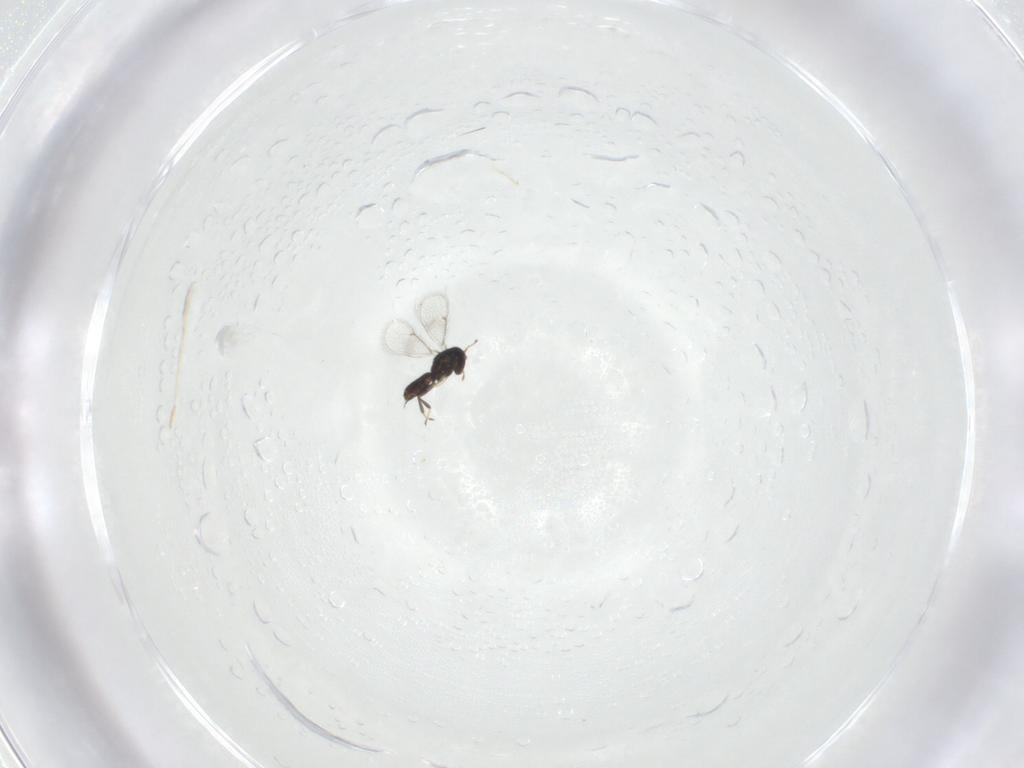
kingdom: Animalia
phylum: Arthropoda
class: Insecta
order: Hymenoptera
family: Eulophidae
